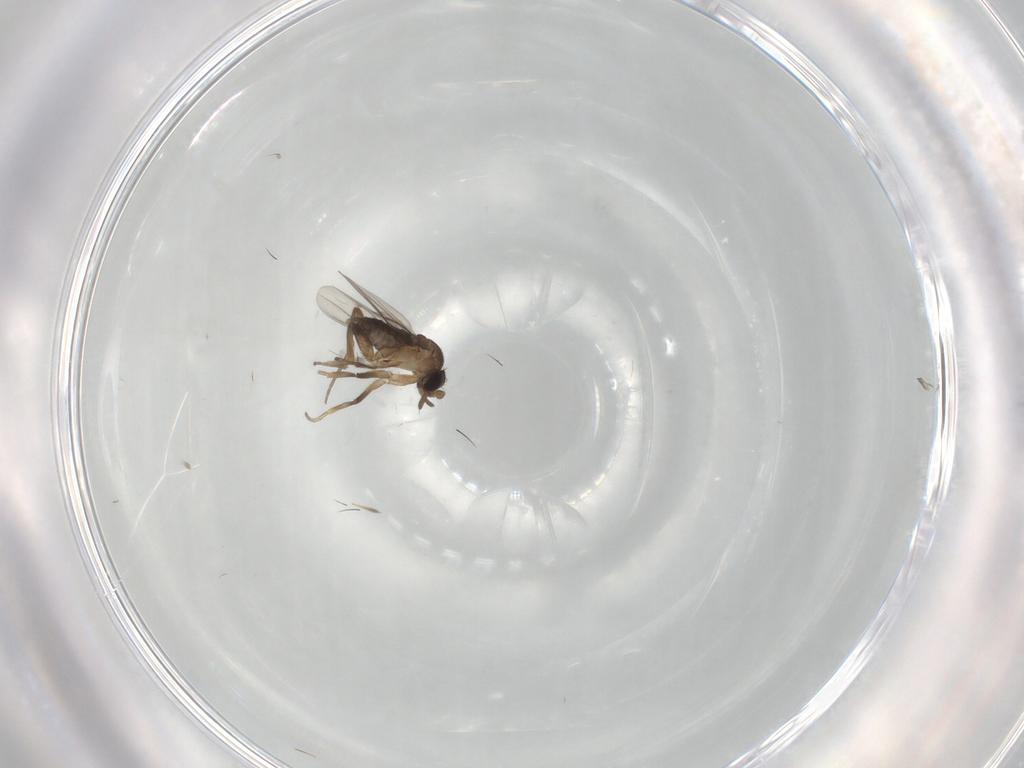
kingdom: Animalia
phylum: Arthropoda
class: Insecta
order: Diptera
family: Phoridae
